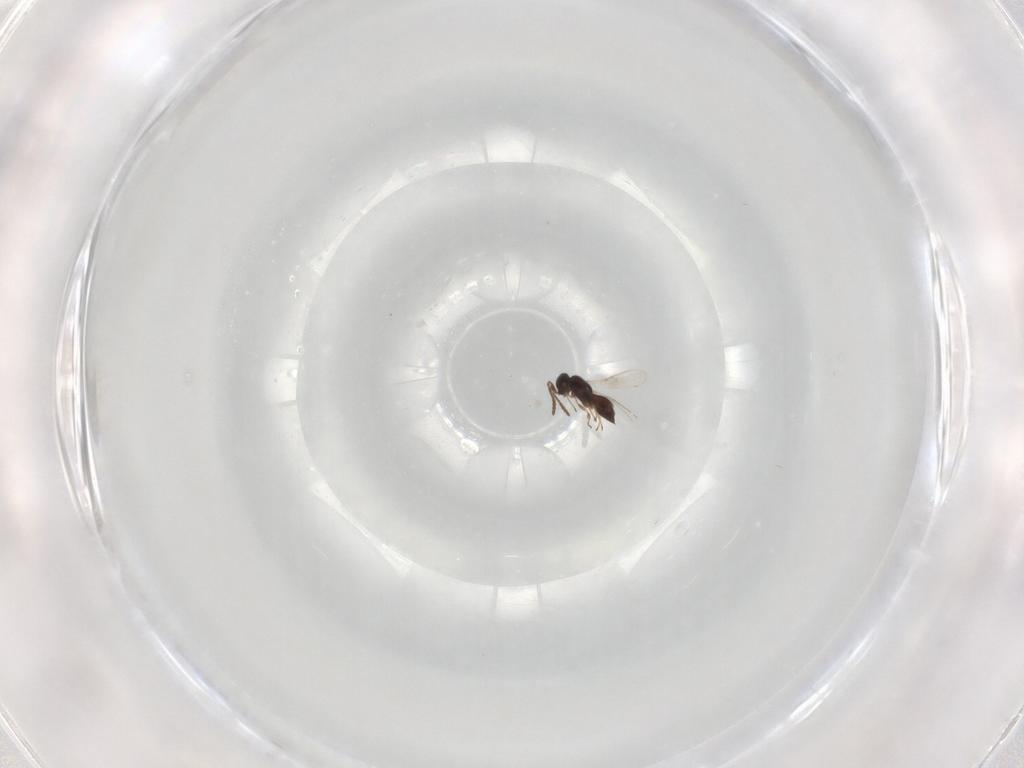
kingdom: Animalia
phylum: Arthropoda
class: Insecta
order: Hymenoptera
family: Scelionidae
